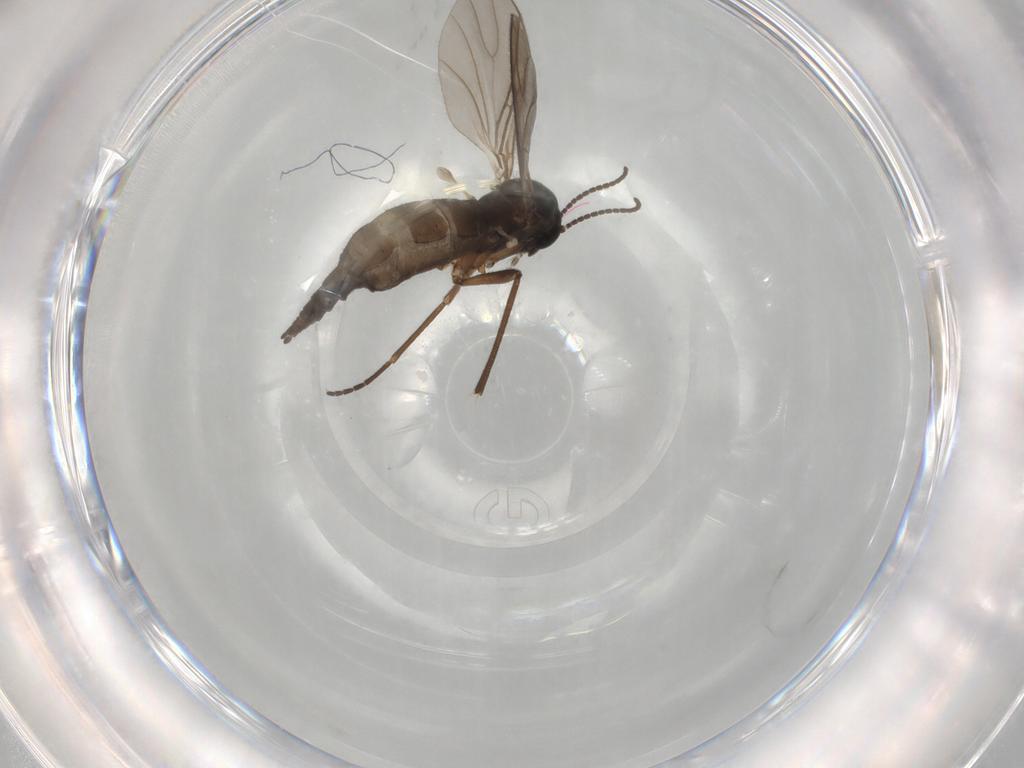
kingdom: Animalia
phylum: Arthropoda
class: Insecta
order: Diptera
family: Sciaridae
